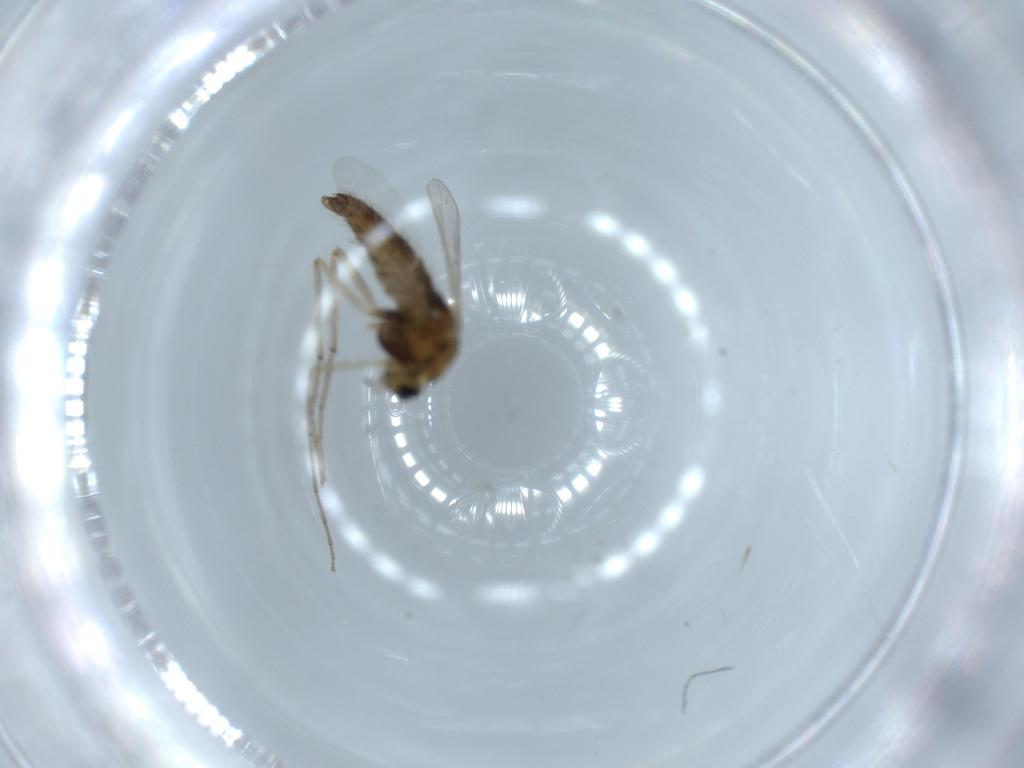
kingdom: Animalia
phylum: Arthropoda
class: Insecta
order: Diptera
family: Chironomidae
